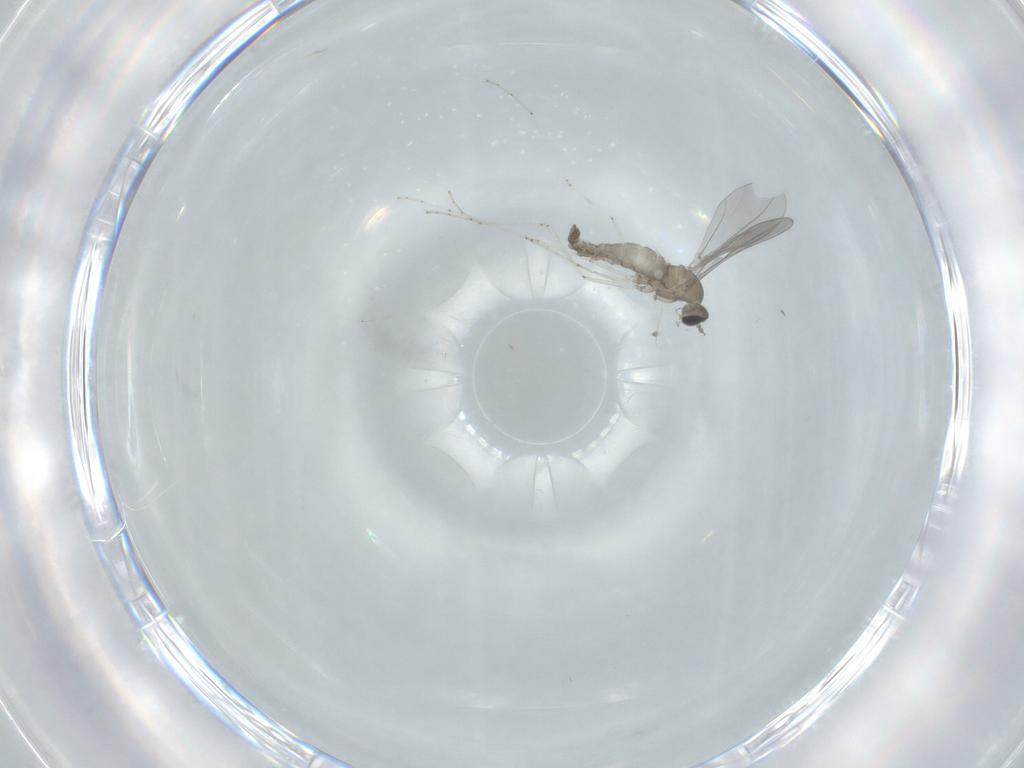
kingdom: Animalia
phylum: Arthropoda
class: Insecta
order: Diptera
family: Cecidomyiidae
